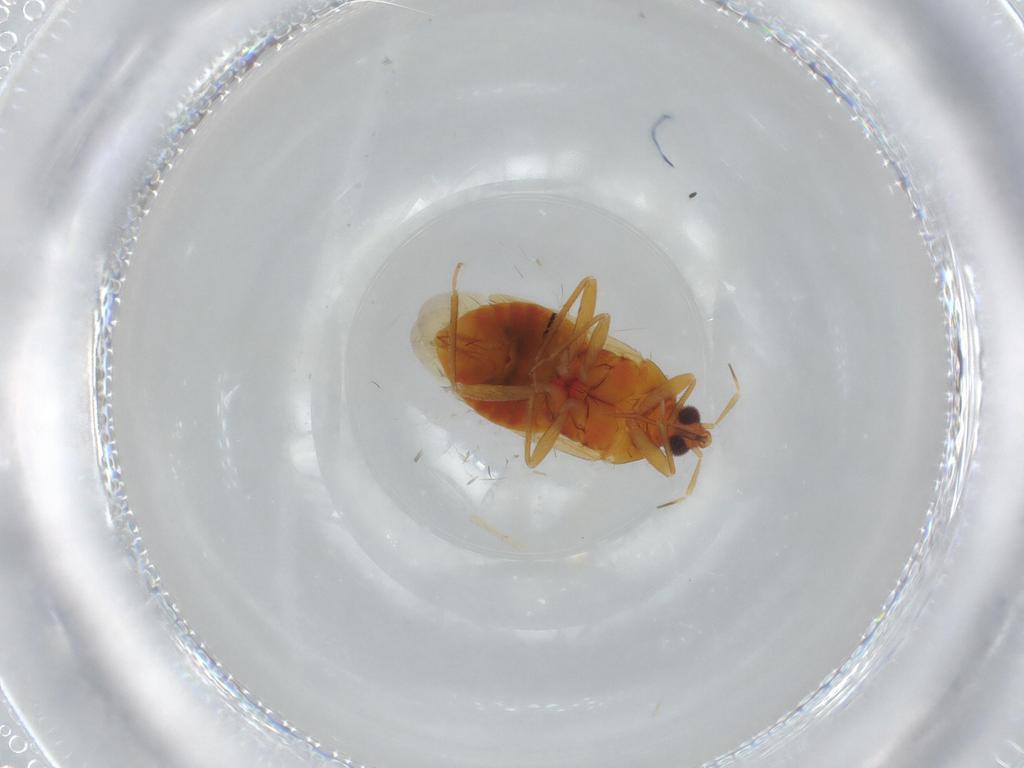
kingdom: Animalia
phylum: Arthropoda
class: Insecta
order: Hemiptera
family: Anthocoridae
